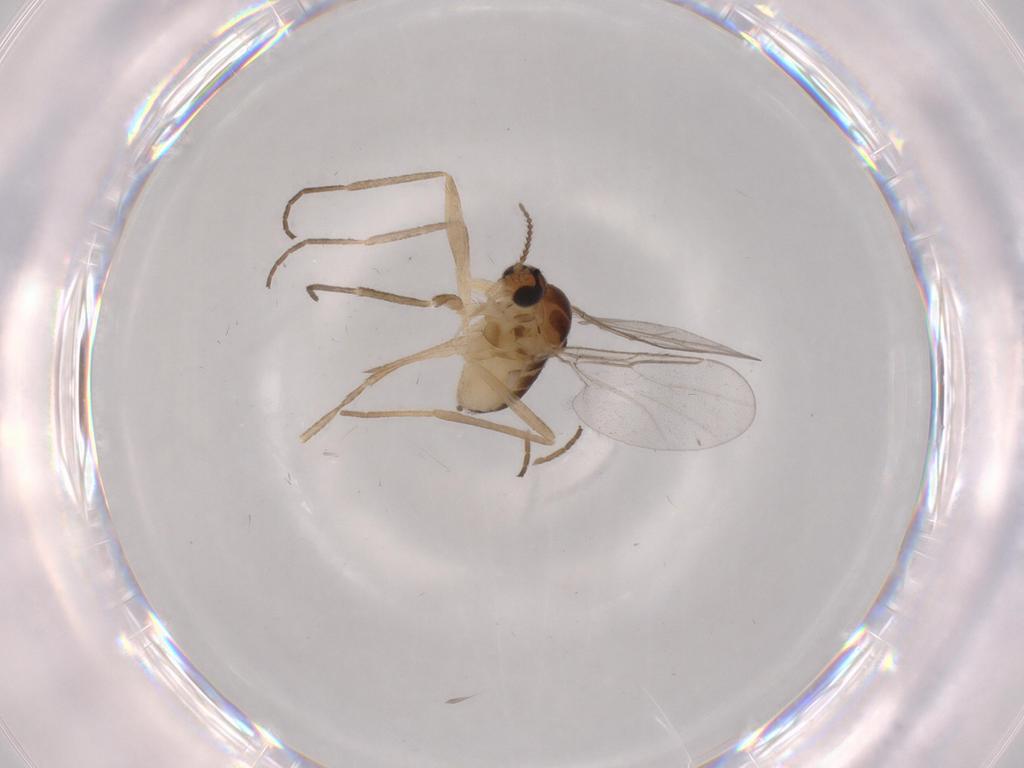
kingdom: Animalia
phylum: Arthropoda
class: Insecta
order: Diptera
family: Cecidomyiidae
